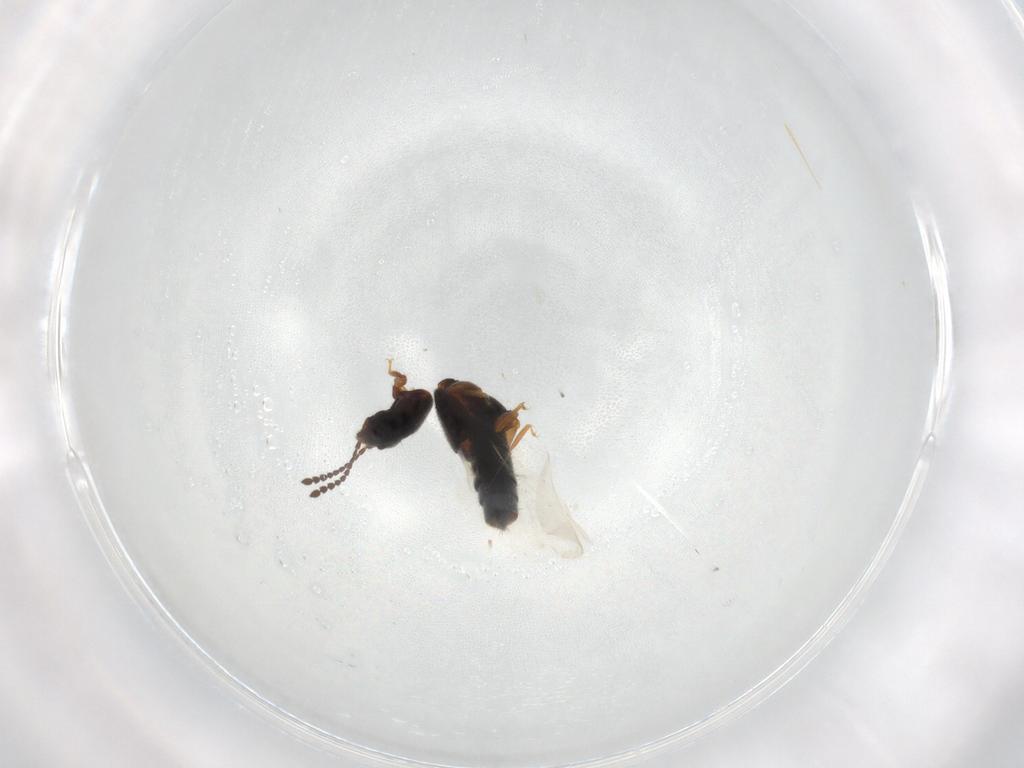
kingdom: Animalia
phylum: Arthropoda
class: Insecta
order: Coleoptera
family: Staphylinidae
